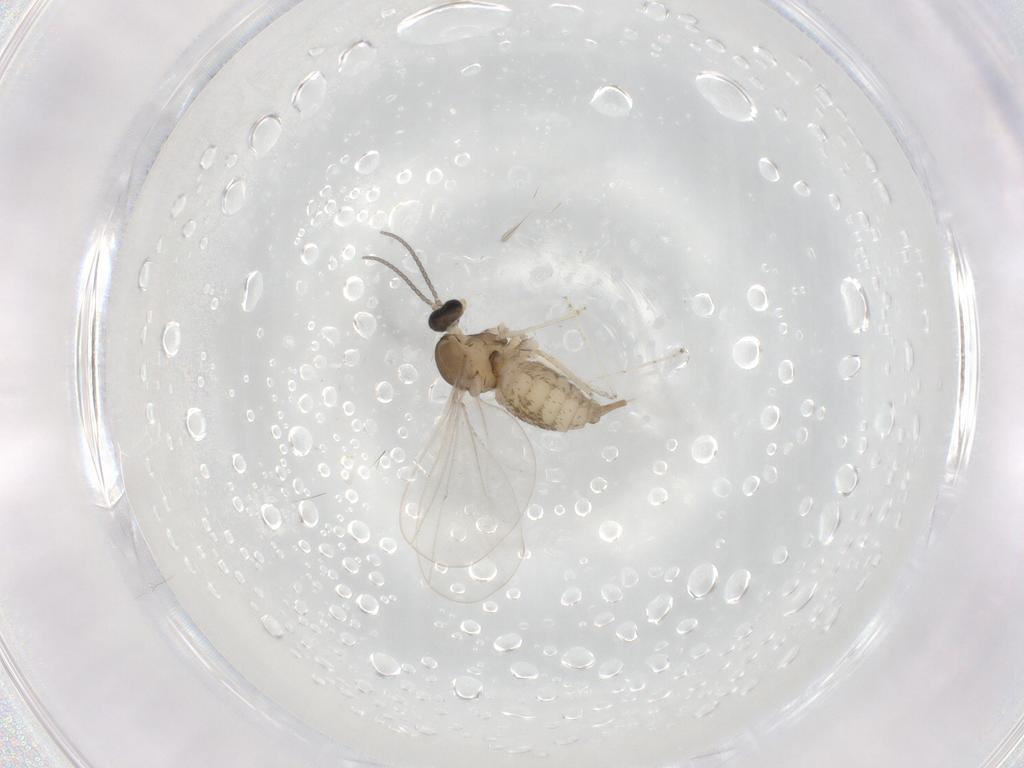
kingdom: Animalia
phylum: Arthropoda
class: Insecta
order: Diptera
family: Cecidomyiidae
